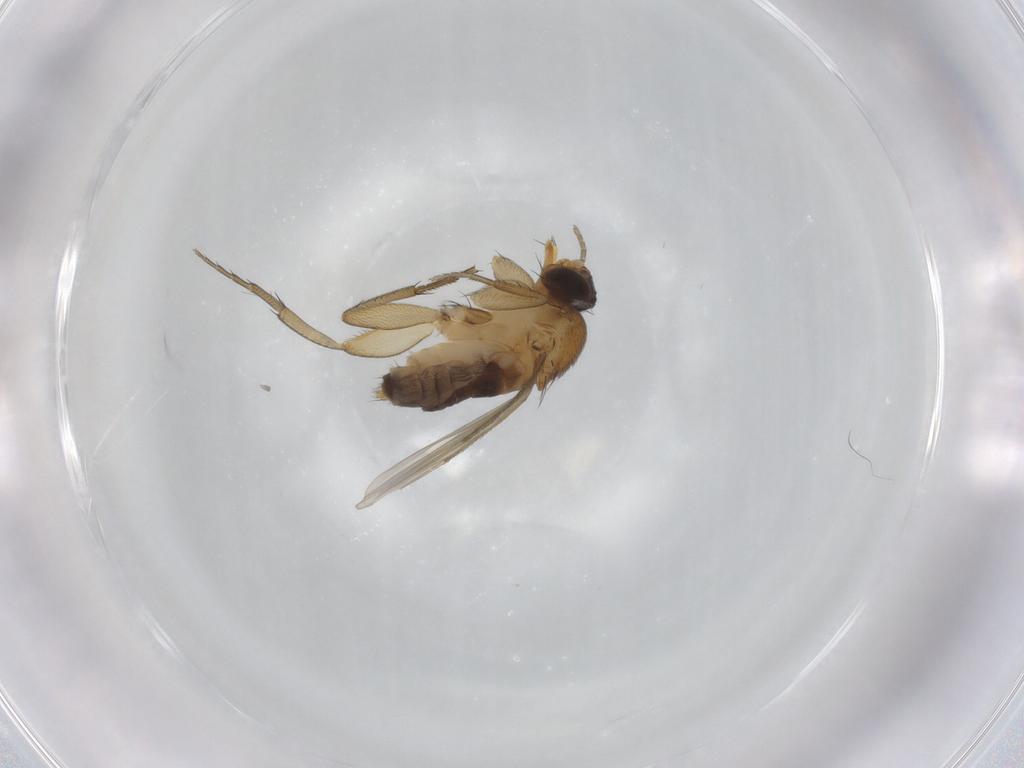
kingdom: Animalia
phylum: Arthropoda
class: Insecta
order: Diptera
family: Phoridae
